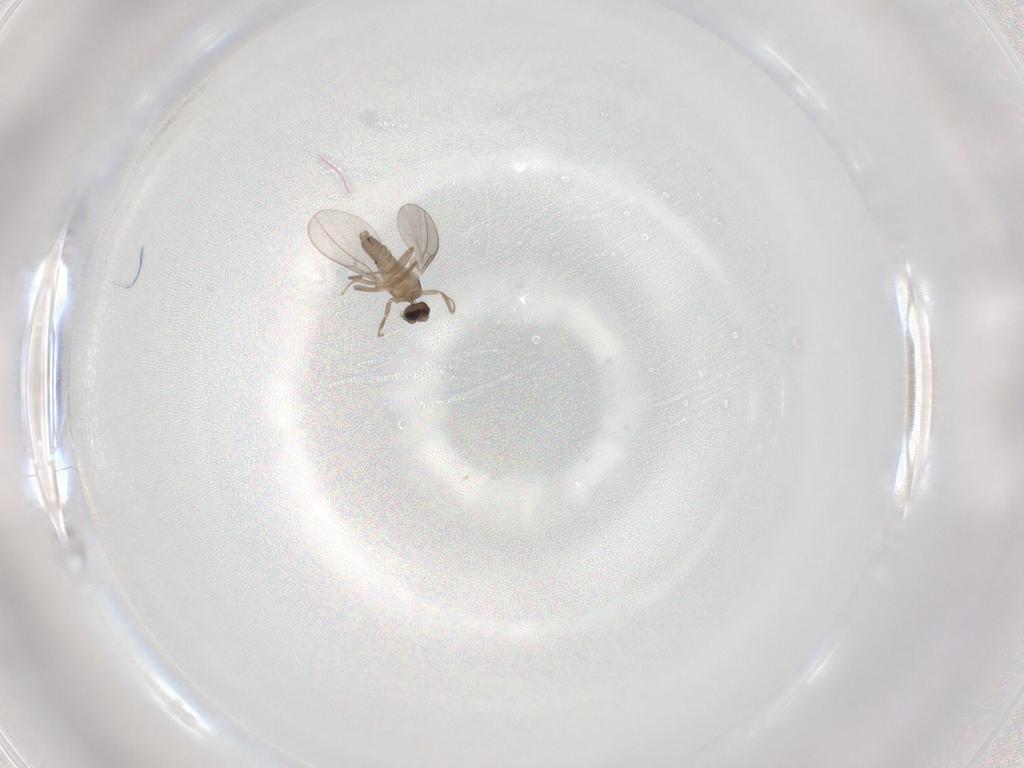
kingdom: Animalia
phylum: Arthropoda
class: Insecta
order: Diptera
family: Cecidomyiidae
